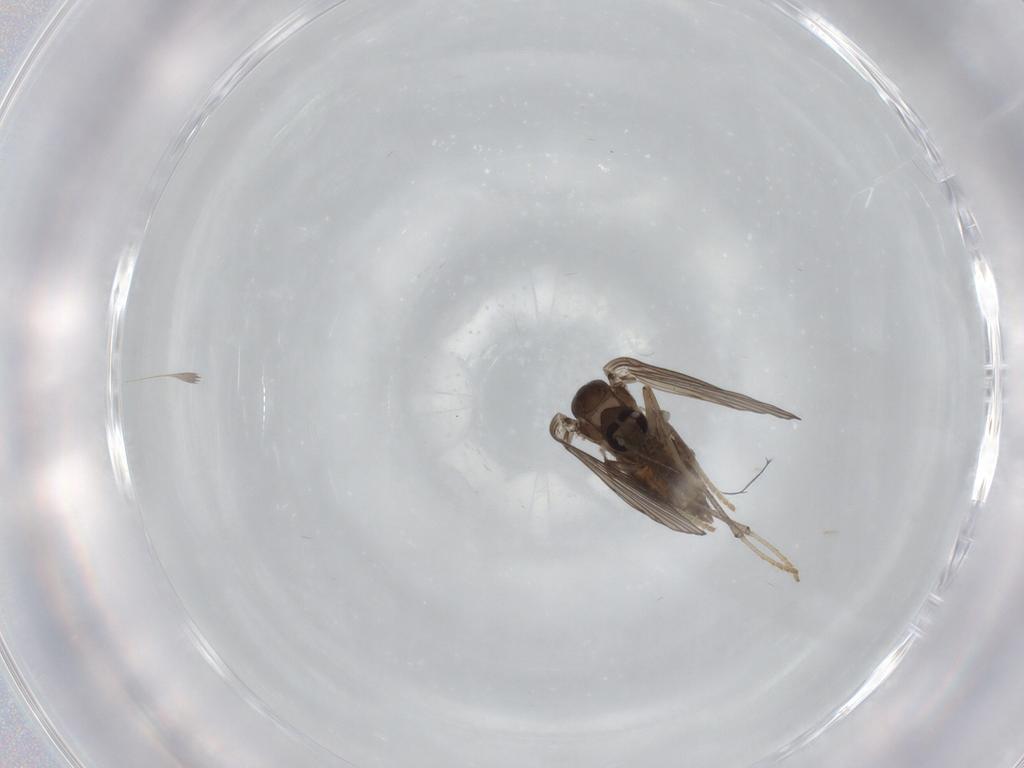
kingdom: Animalia
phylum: Arthropoda
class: Insecta
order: Diptera
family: Psychodidae
